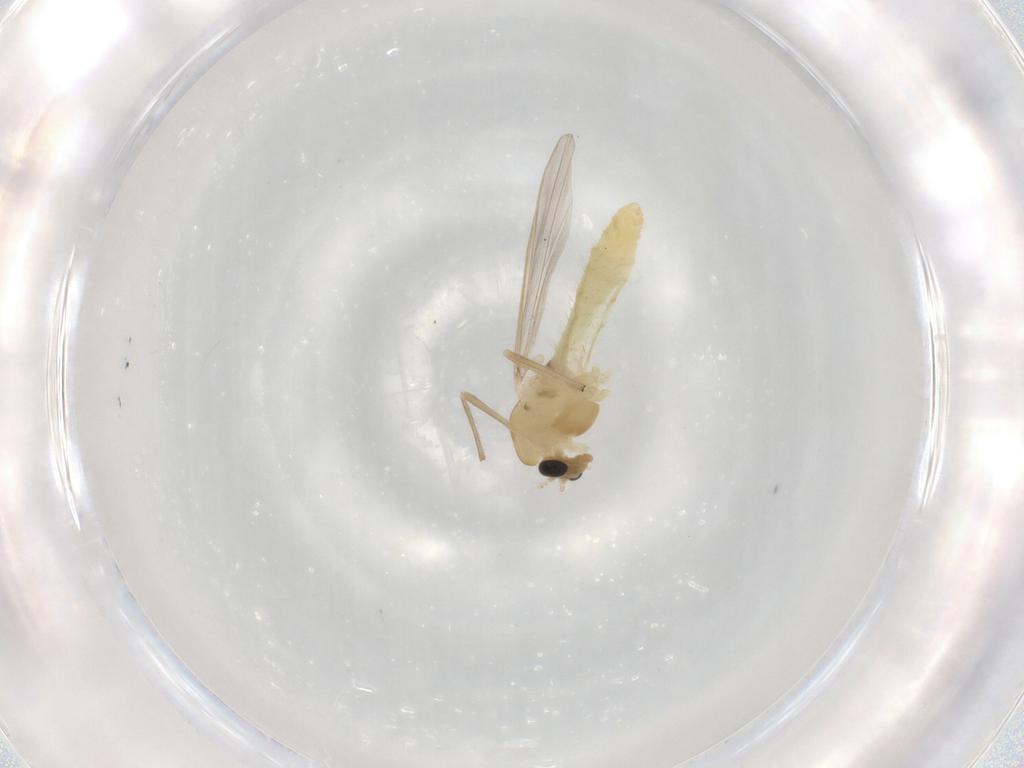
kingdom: Animalia
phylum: Arthropoda
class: Insecta
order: Diptera
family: Chironomidae
